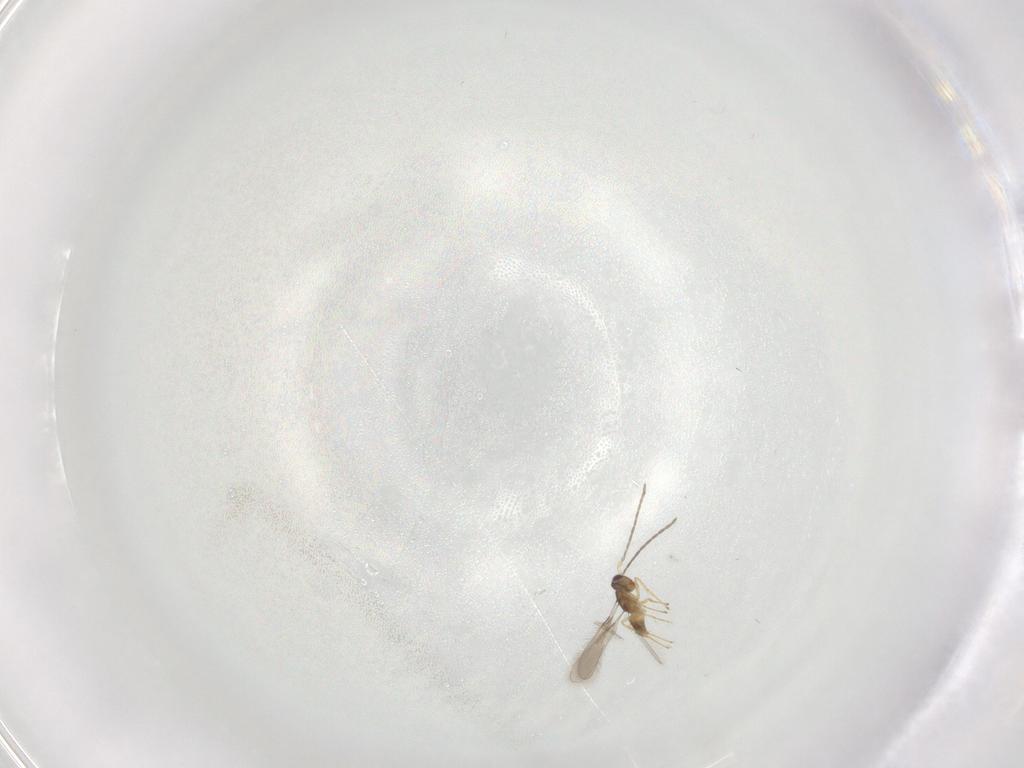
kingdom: Animalia
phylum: Arthropoda
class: Insecta
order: Hymenoptera
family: Mymaridae
